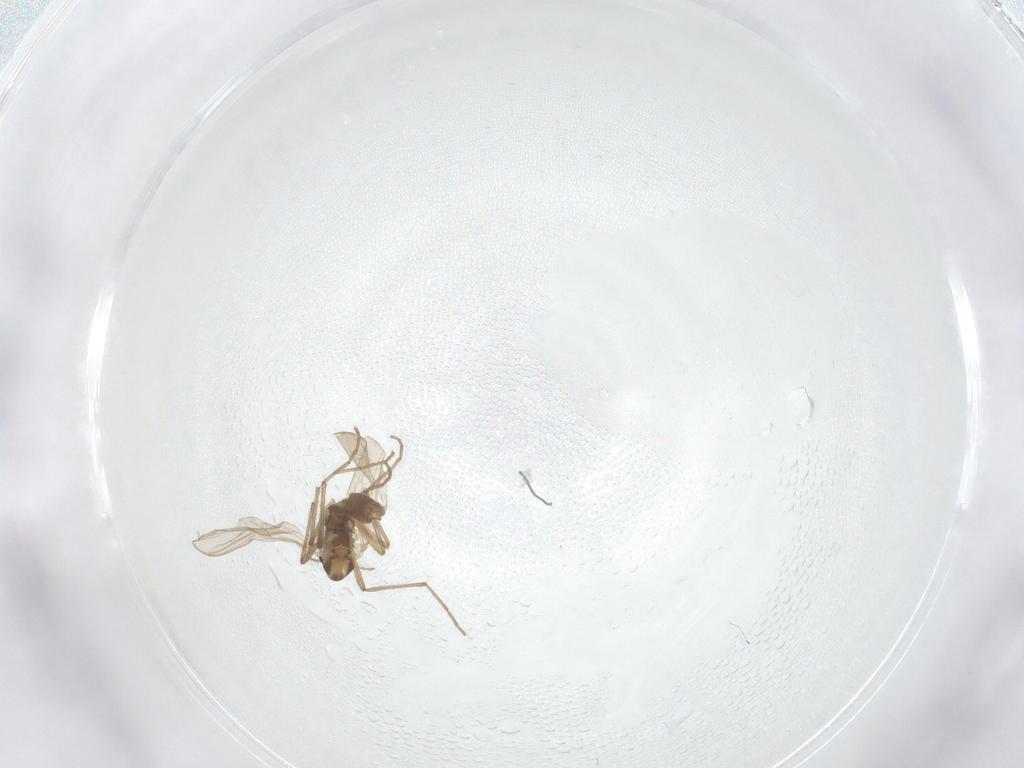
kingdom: Animalia
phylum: Arthropoda
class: Insecta
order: Diptera
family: Chironomidae
